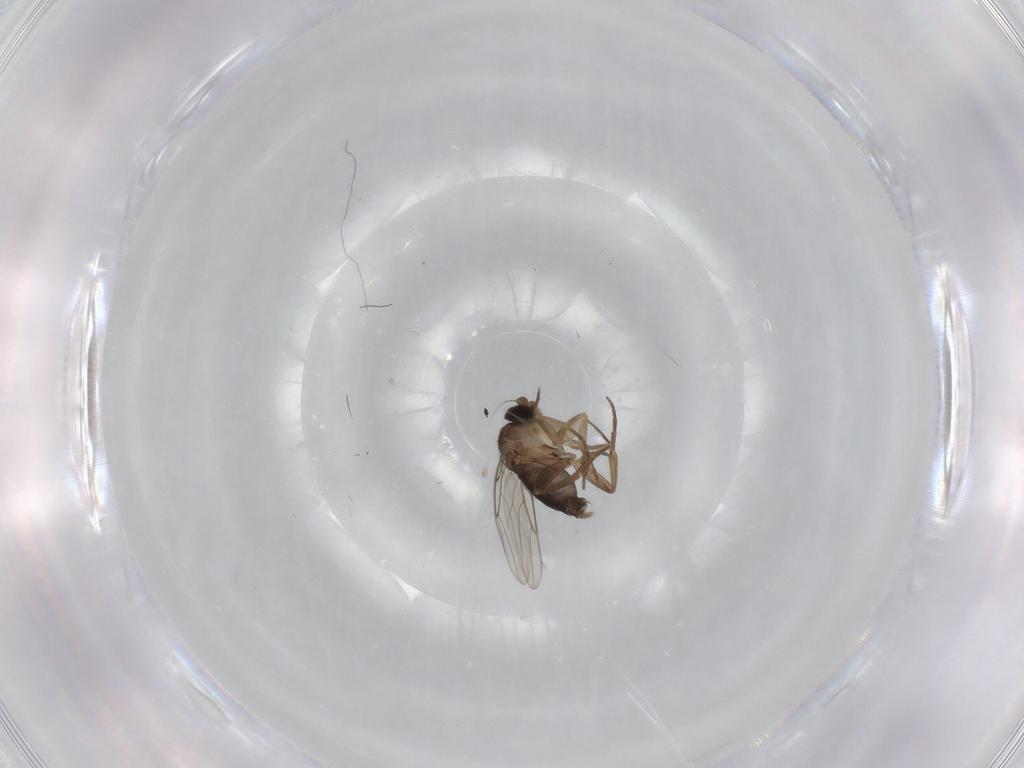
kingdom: Animalia
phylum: Arthropoda
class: Insecta
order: Diptera
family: Phoridae
